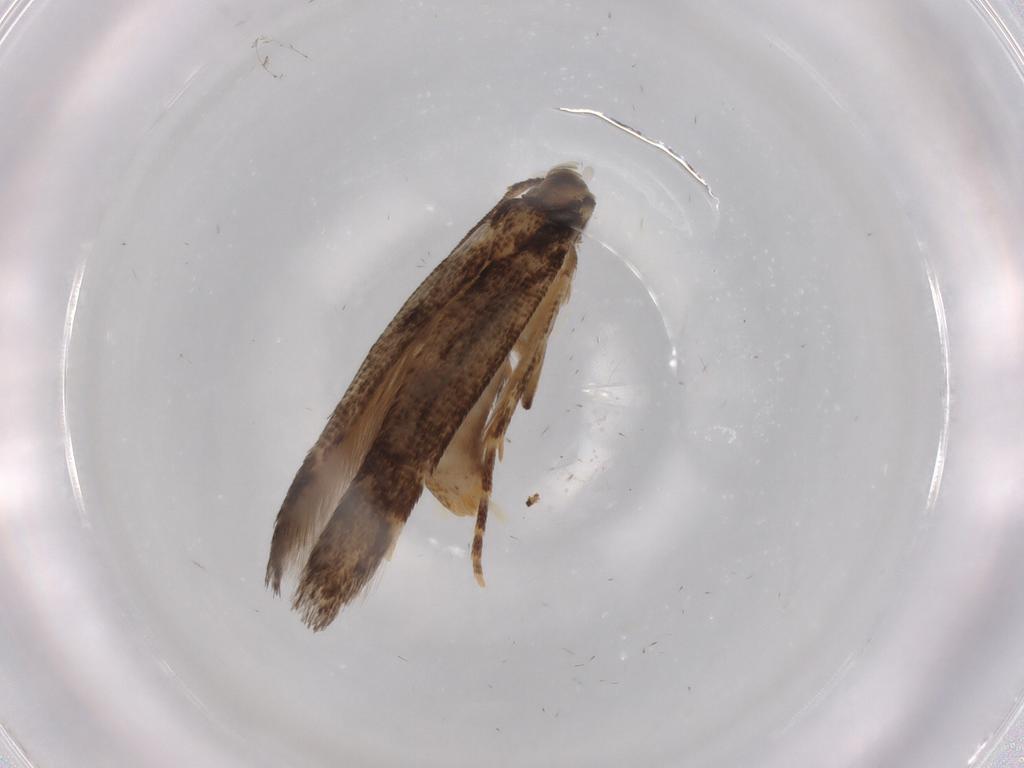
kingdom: Animalia
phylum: Arthropoda
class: Insecta
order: Lepidoptera
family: Cosmopterigidae
